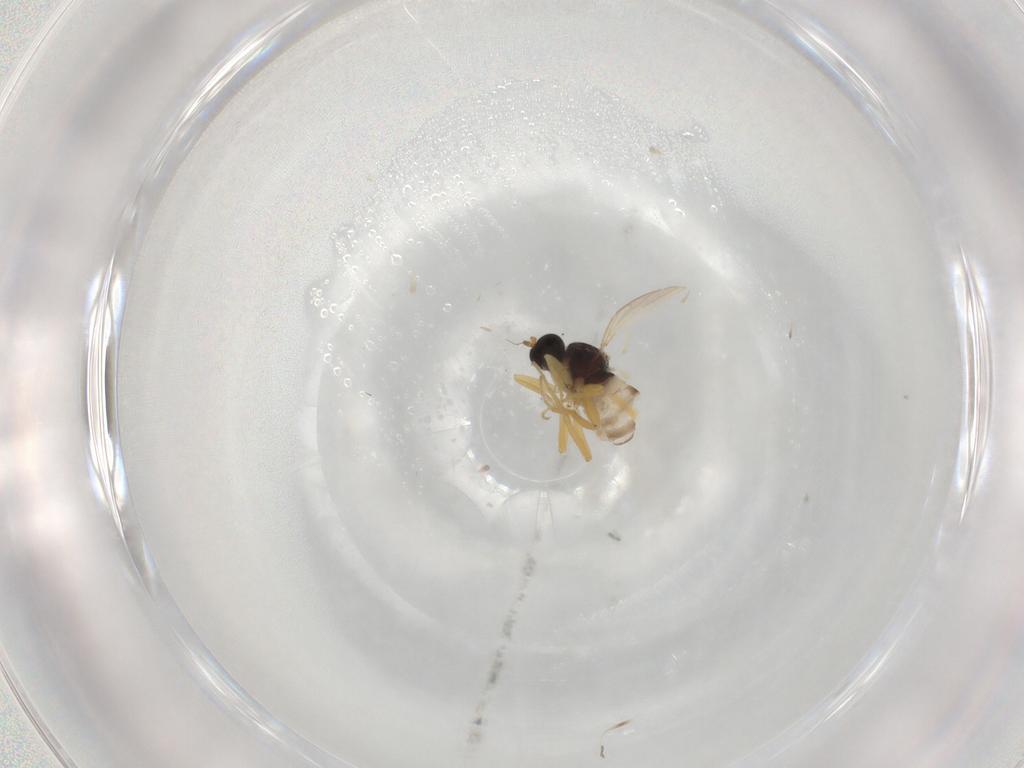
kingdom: Animalia
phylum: Arthropoda
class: Insecta
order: Diptera
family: Hybotidae
